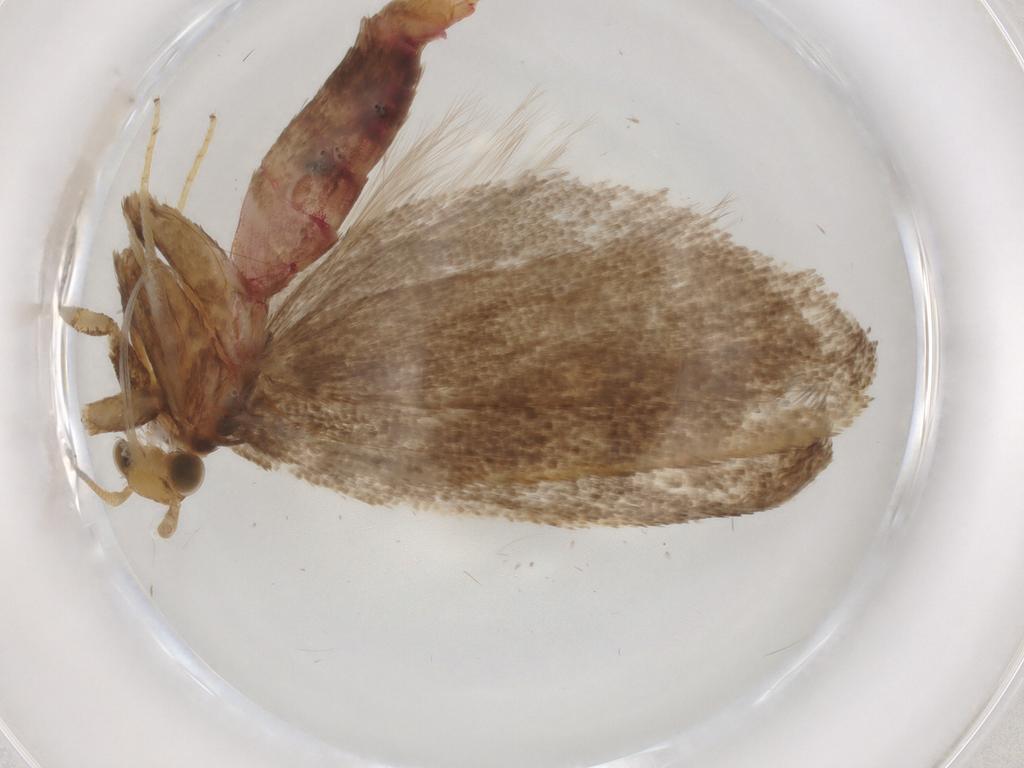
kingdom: Animalia
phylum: Arthropoda
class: Insecta
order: Lepidoptera
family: Lecithoceridae
